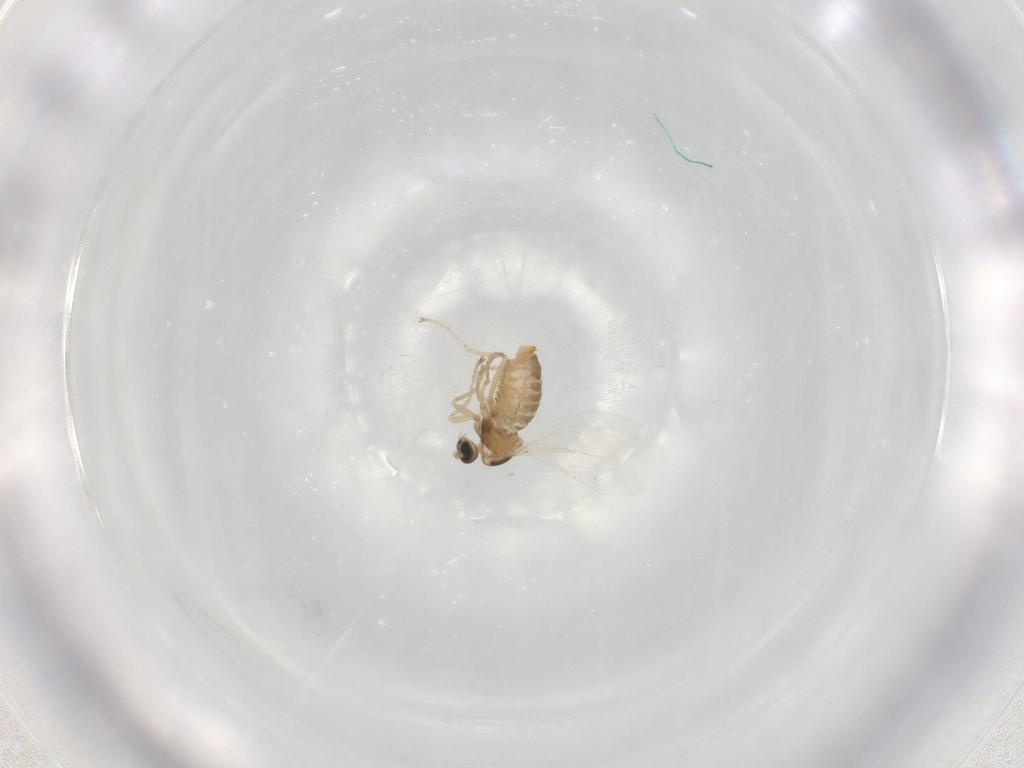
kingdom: Animalia
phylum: Arthropoda
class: Insecta
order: Diptera
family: Cecidomyiidae
